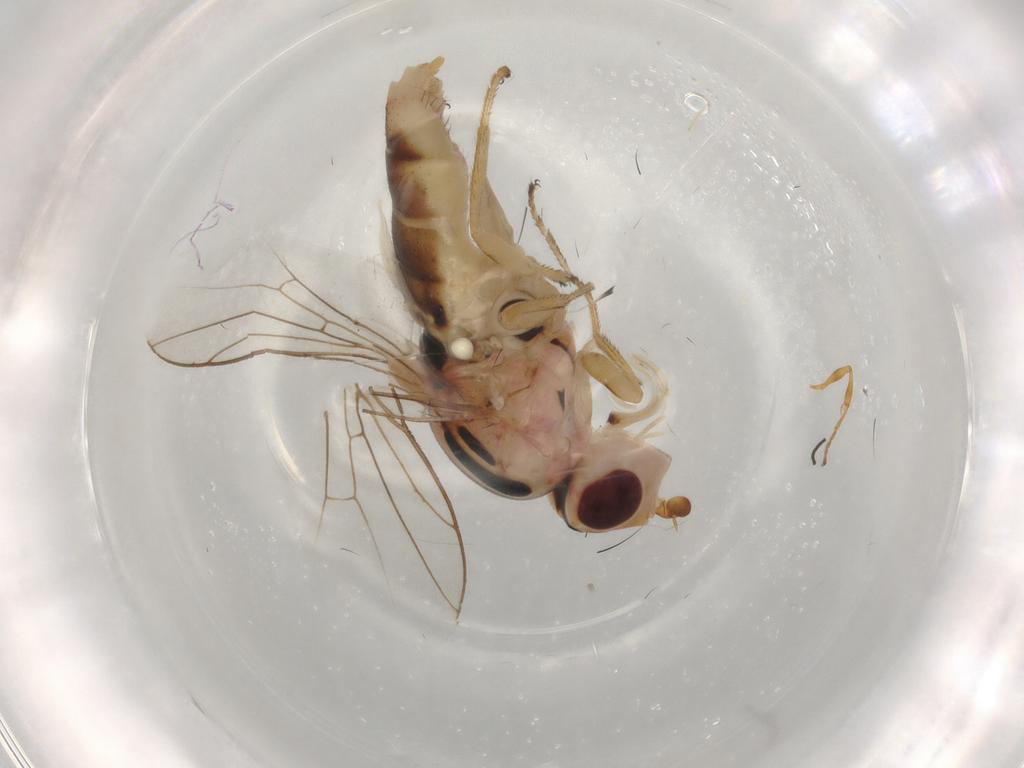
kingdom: Animalia
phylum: Arthropoda
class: Insecta
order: Diptera
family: Chloropidae
